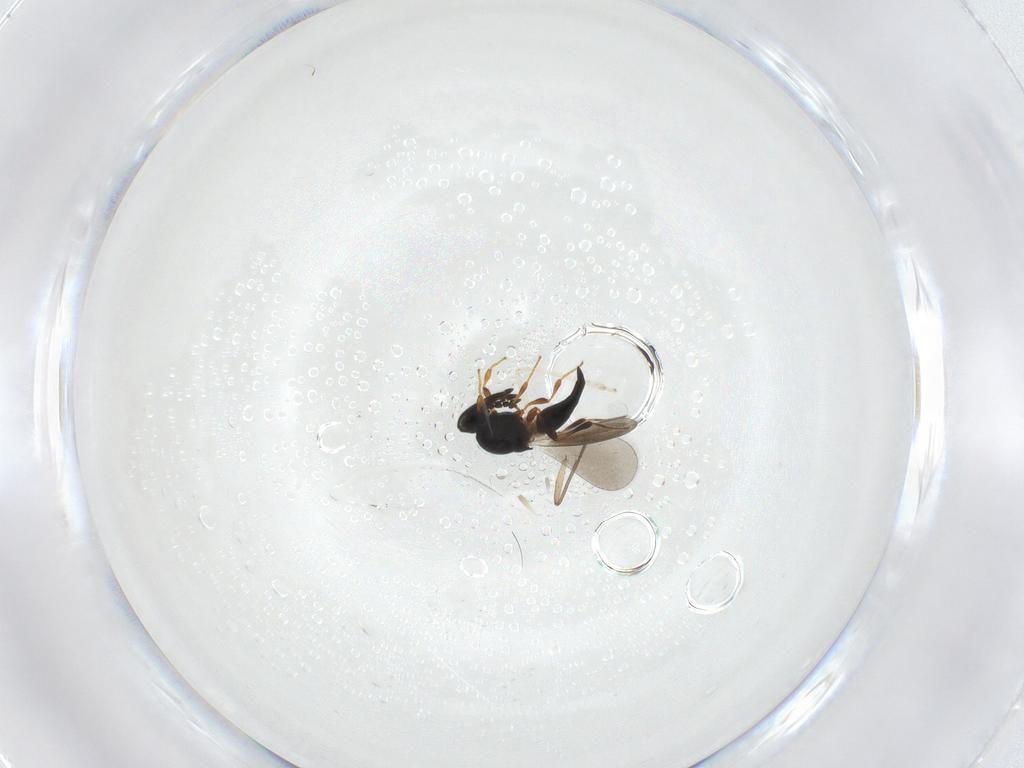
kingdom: Animalia
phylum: Arthropoda
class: Insecta
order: Hymenoptera
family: Platygastridae
